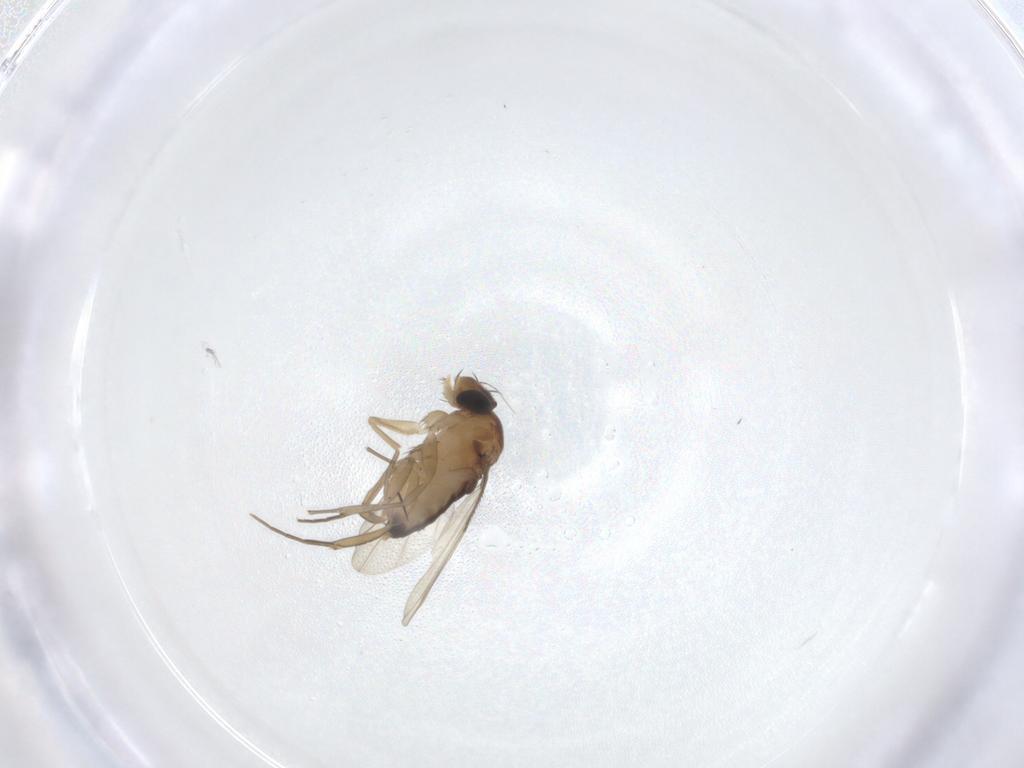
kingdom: Animalia
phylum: Arthropoda
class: Insecta
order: Diptera
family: Phoridae
